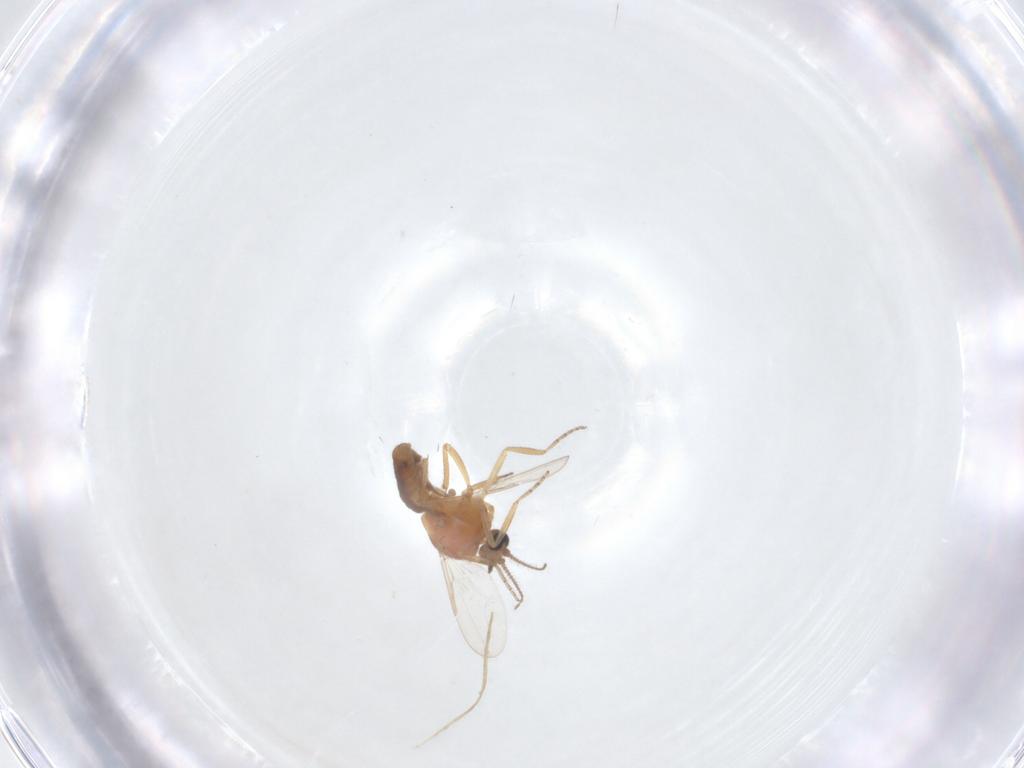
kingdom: Animalia
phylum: Arthropoda
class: Insecta
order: Diptera
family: Ceratopogonidae
